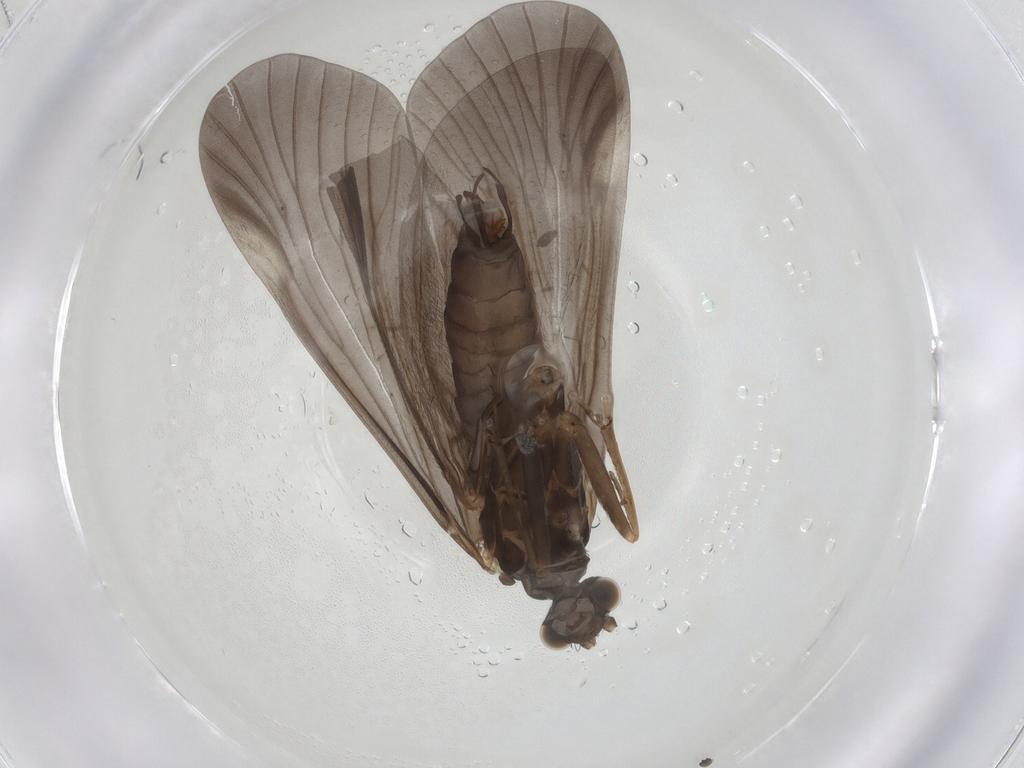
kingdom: Animalia
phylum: Arthropoda
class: Insecta
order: Trichoptera
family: Hydropsychidae
